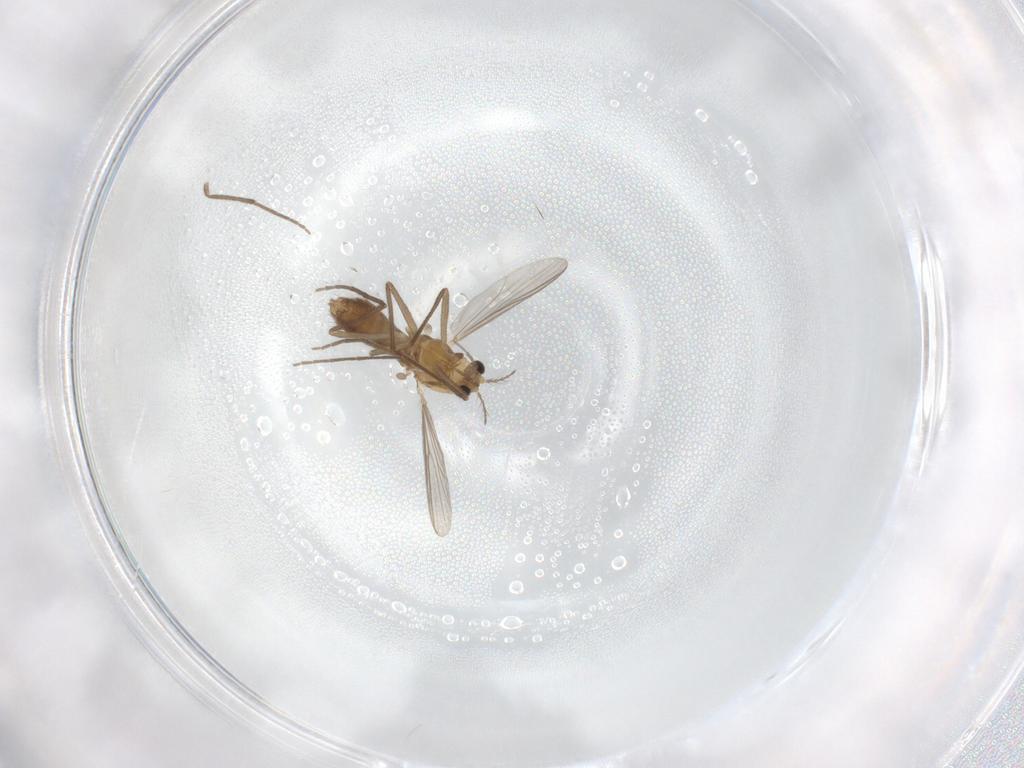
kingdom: Animalia
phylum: Arthropoda
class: Insecta
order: Diptera
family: Chironomidae
